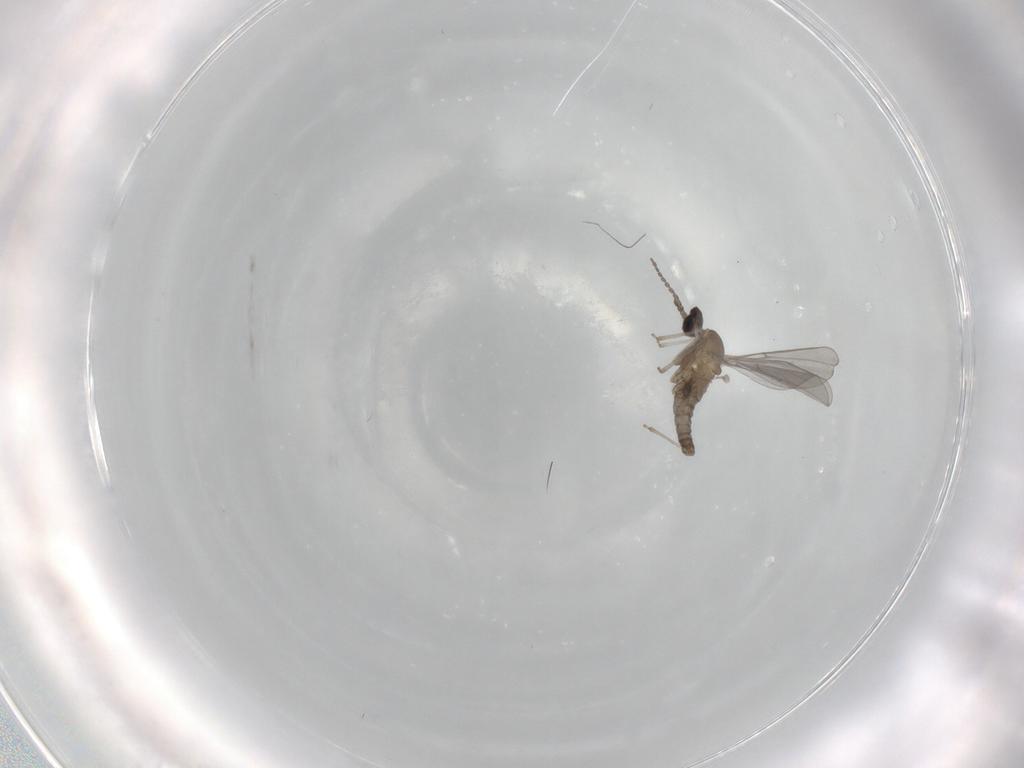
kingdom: Animalia
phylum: Arthropoda
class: Insecta
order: Diptera
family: Cecidomyiidae
